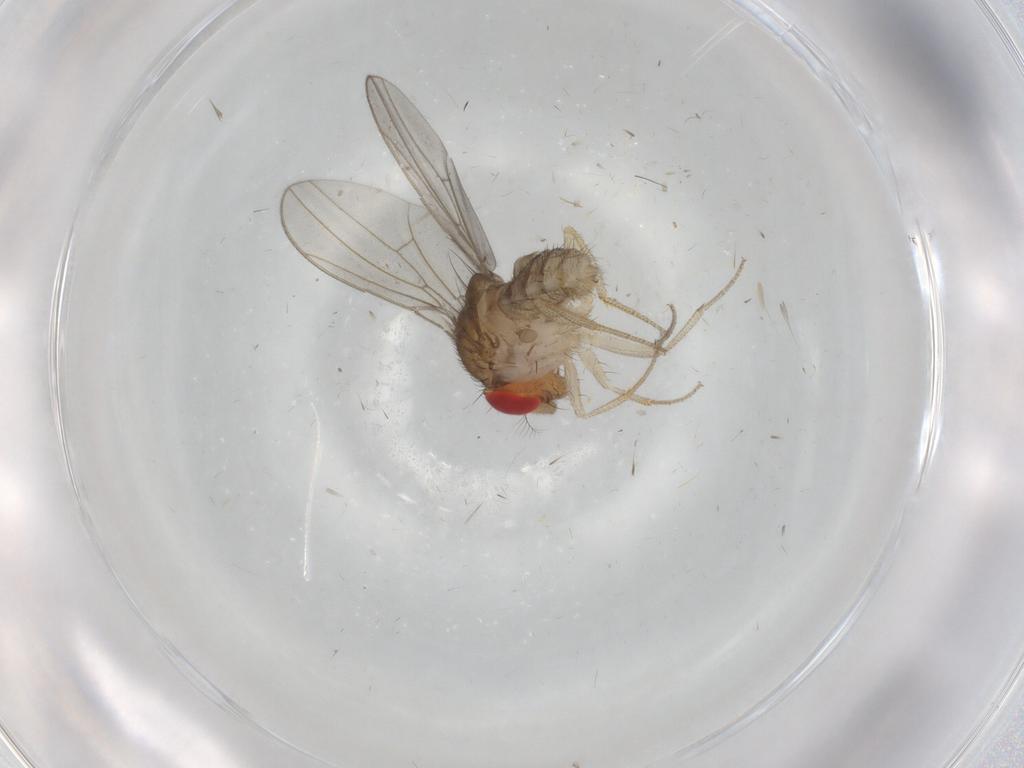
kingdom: Animalia
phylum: Arthropoda
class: Insecta
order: Diptera
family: Drosophilidae
